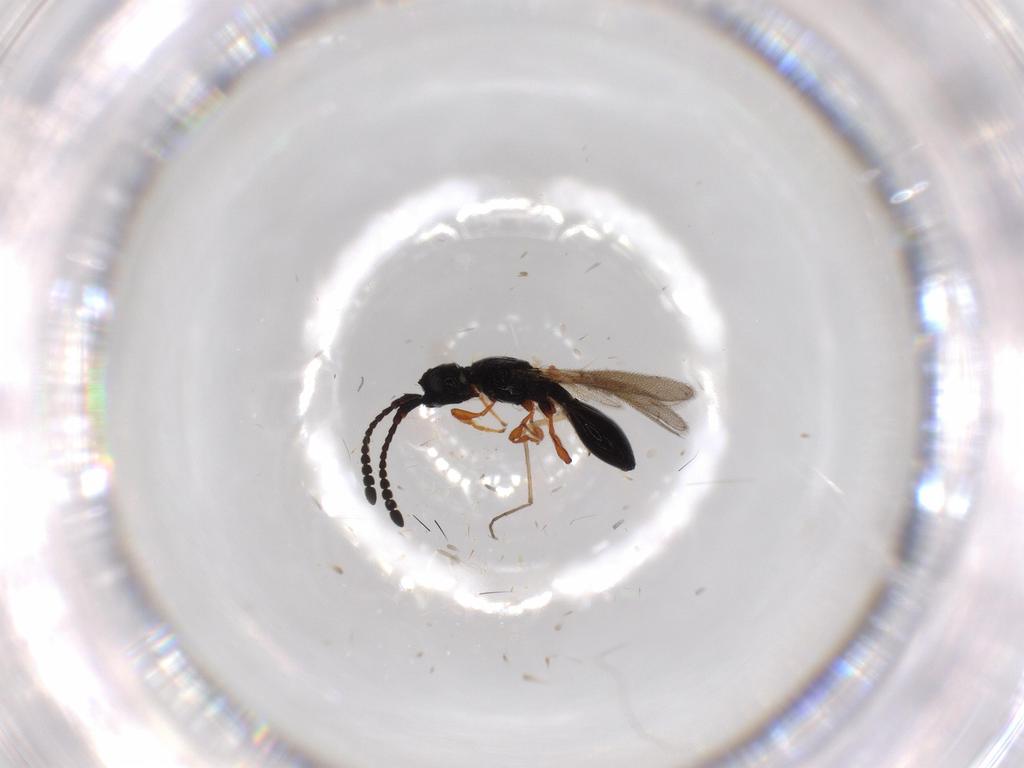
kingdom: Animalia
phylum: Arthropoda
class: Insecta
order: Hymenoptera
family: Diapriidae
